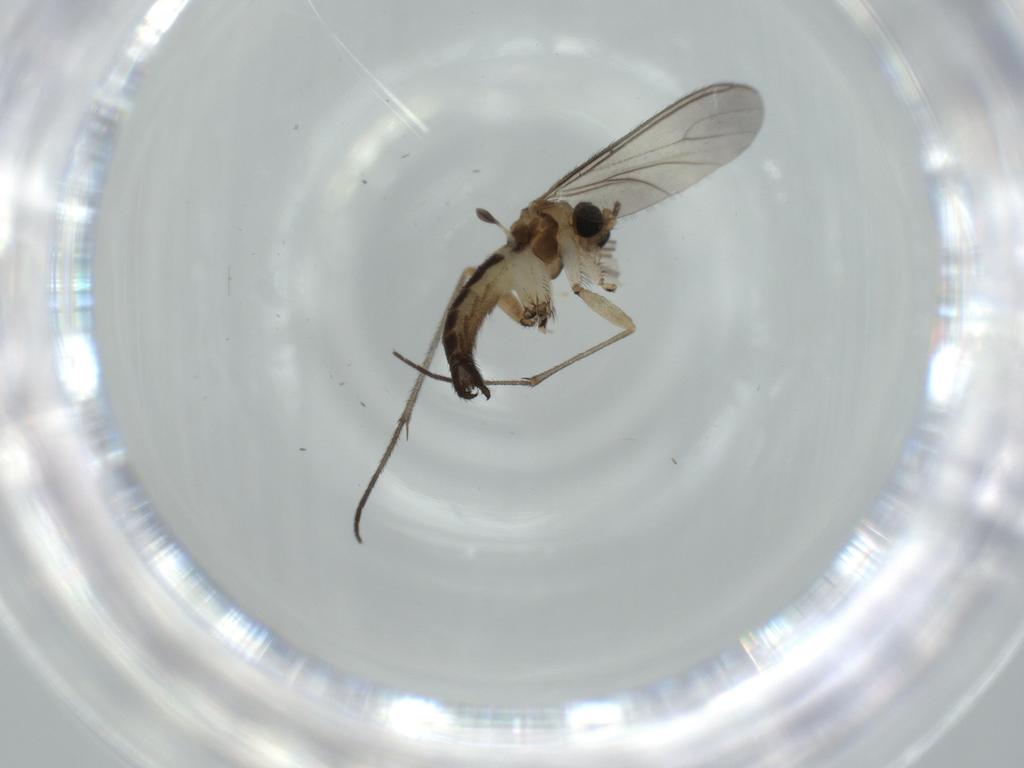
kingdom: Animalia
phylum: Arthropoda
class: Insecta
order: Diptera
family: Sciaridae
